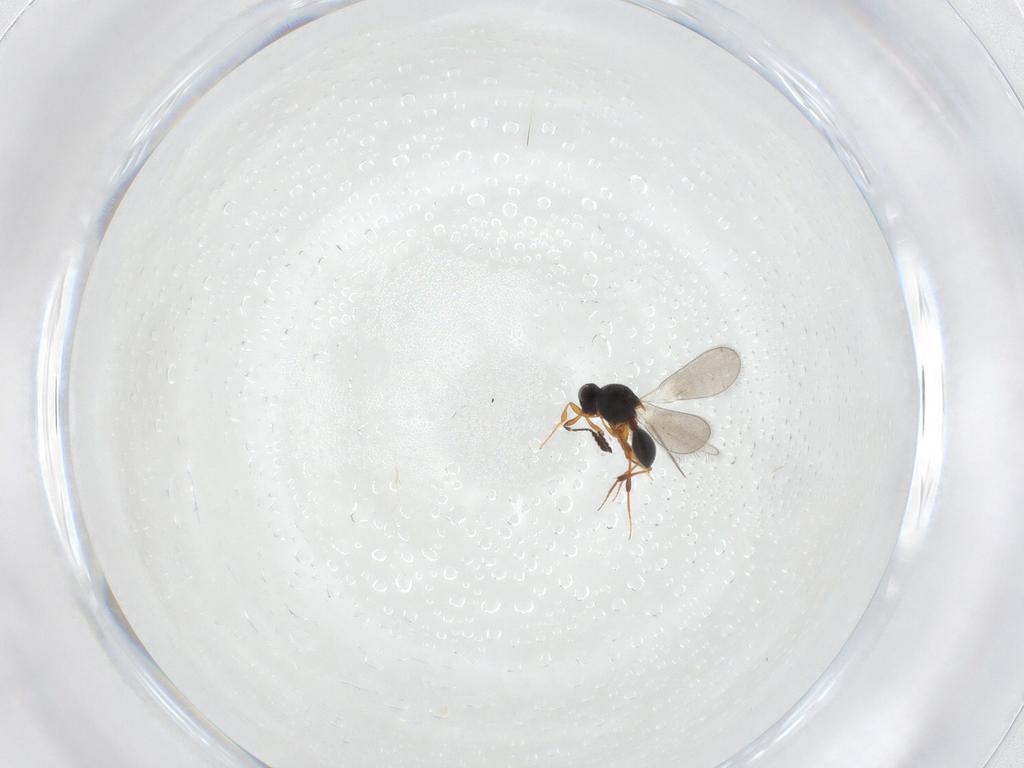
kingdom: Animalia
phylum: Arthropoda
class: Insecta
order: Hymenoptera
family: Platygastridae
